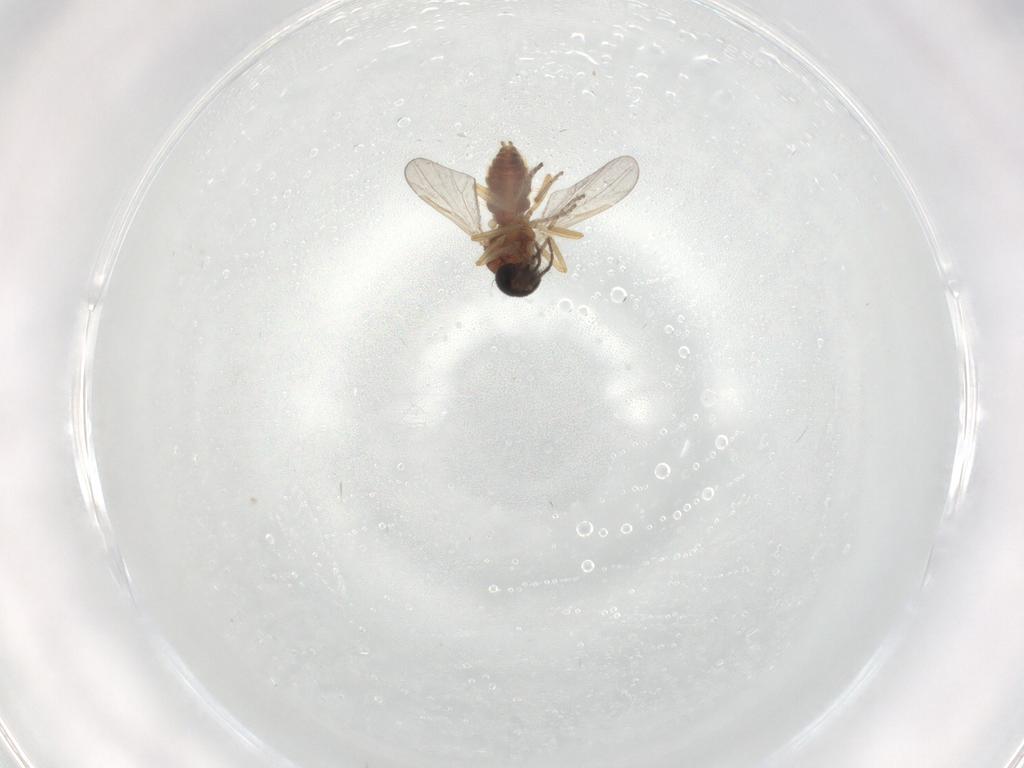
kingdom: Animalia
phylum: Arthropoda
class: Insecta
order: Diptera
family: Ceratopogonidae
